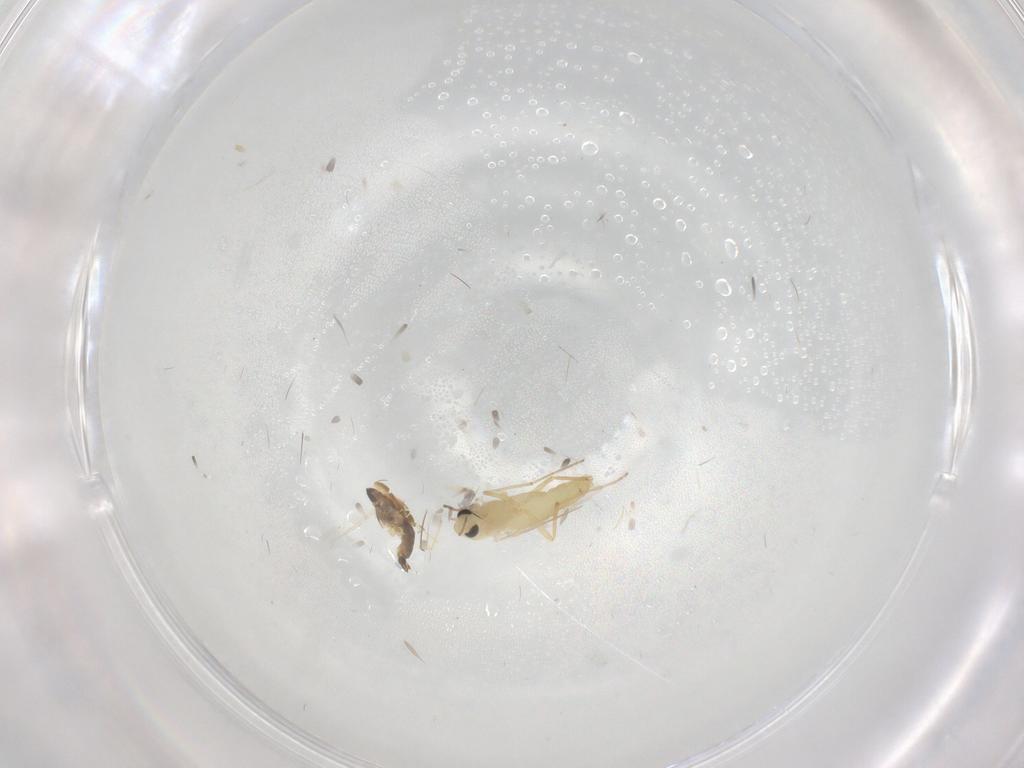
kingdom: Animalia
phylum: Arthropoda
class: Insecta
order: Diptera
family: Chironomidae
